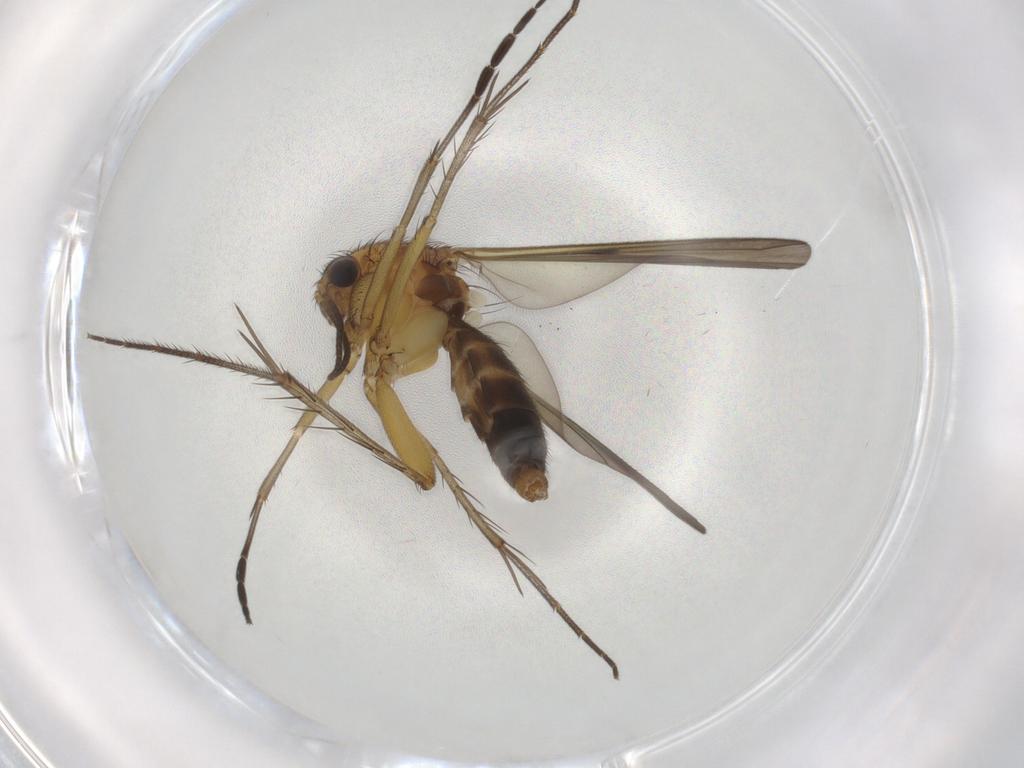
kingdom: Animalia
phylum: Arthropoda
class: Insecta
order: Diptera
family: Mycetophilidae
